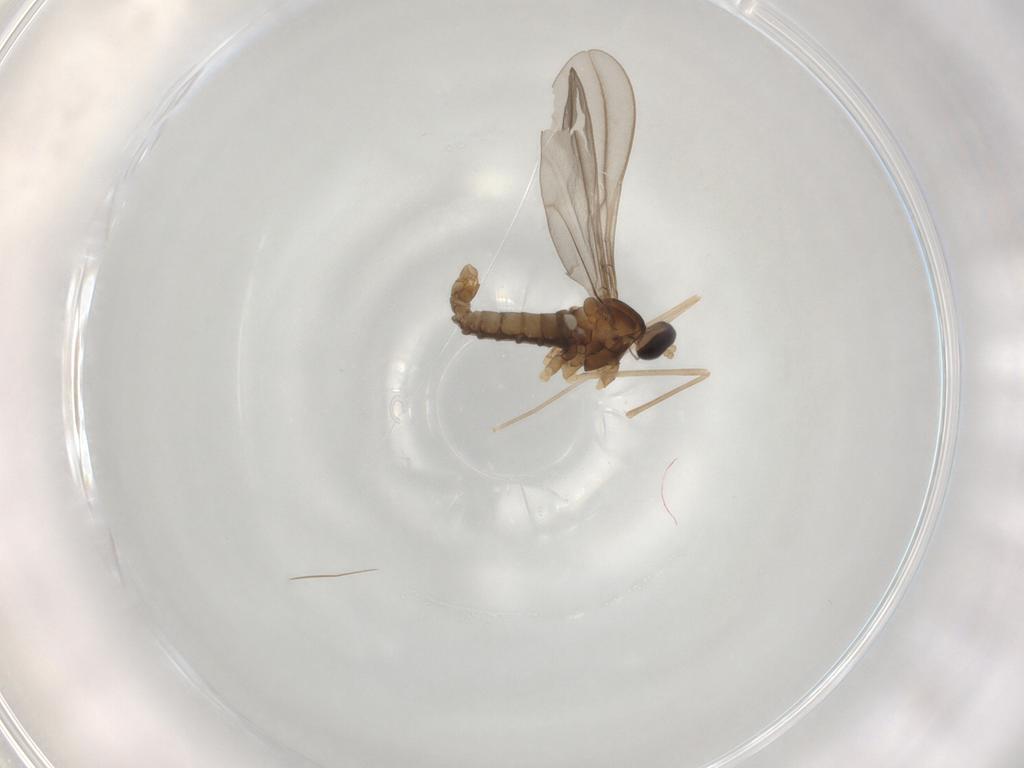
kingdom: Animalia
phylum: Arthropoda
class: Insecta
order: Diptera
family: Cecidomyiidae
